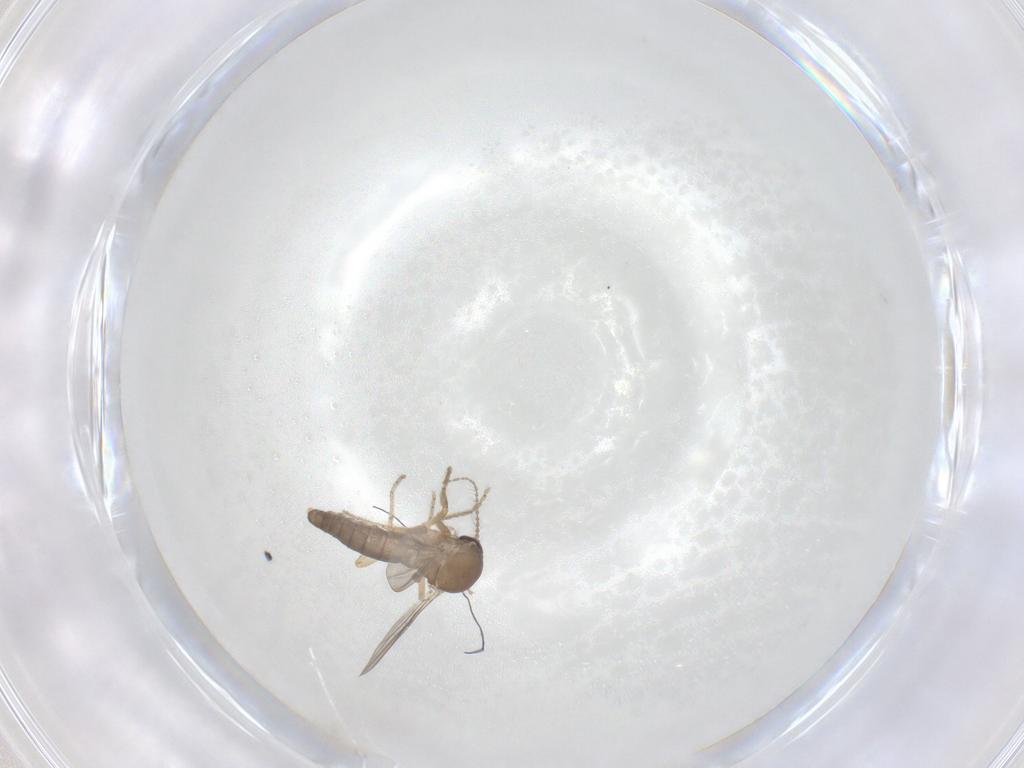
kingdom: Animalia
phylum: Arthropoda
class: Insecta
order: Diptera
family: Ceratopogonidae
